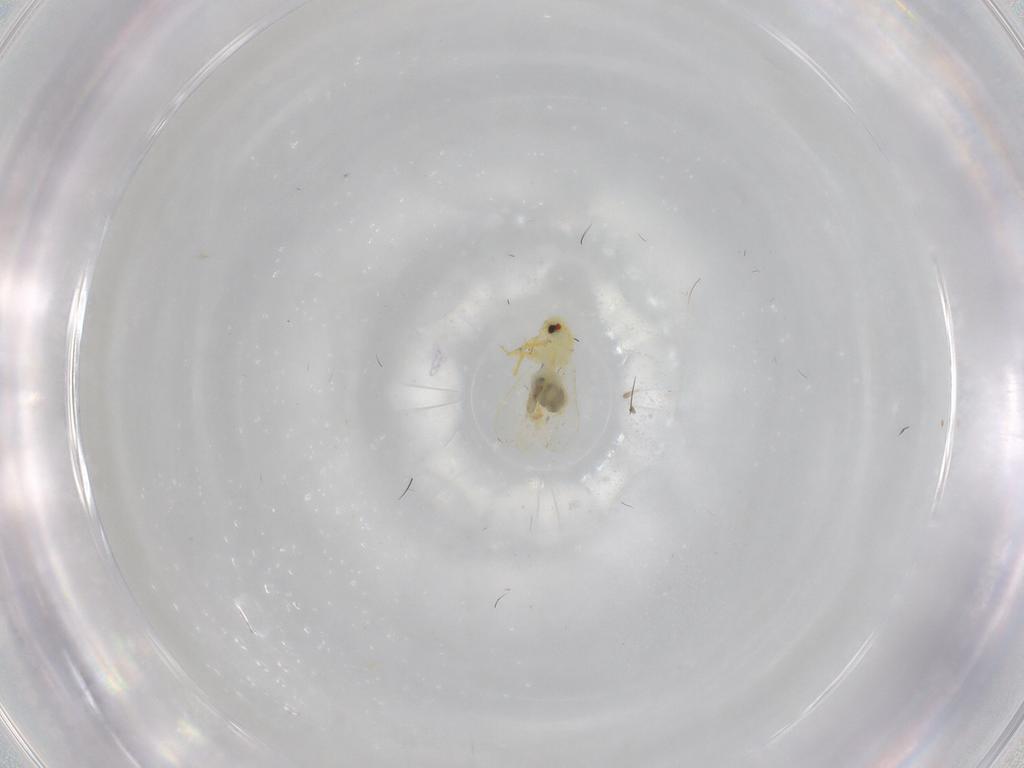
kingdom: Animalia
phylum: Arthropoda
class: Insecta
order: Hemiptera
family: Aleyrodidae
